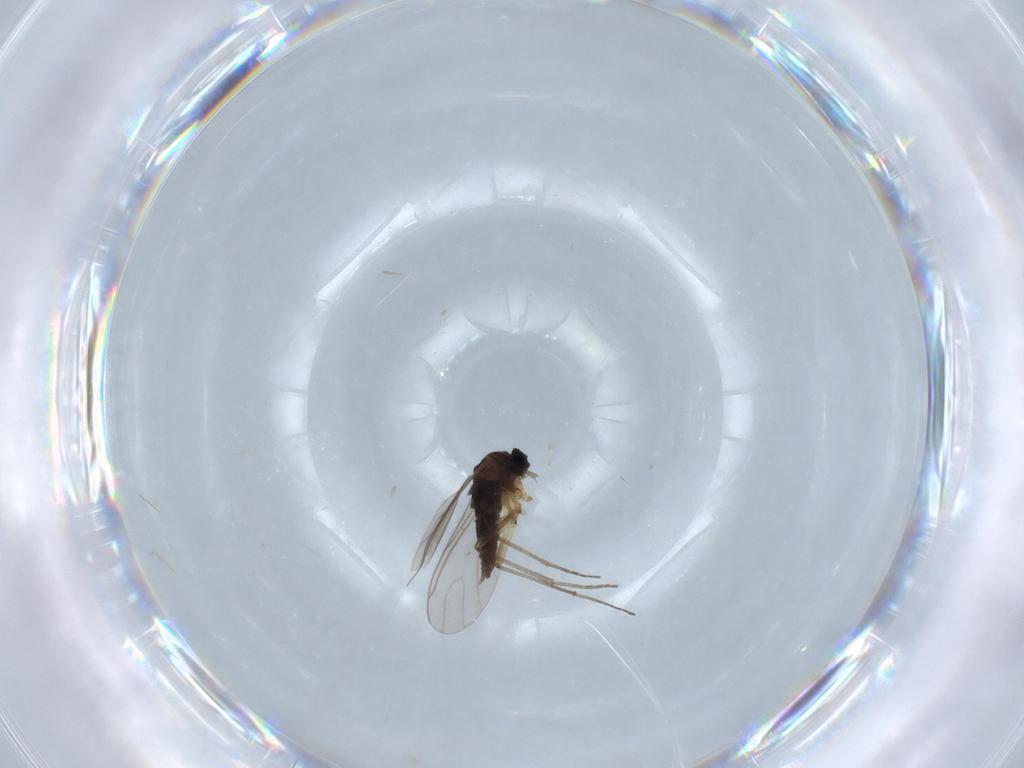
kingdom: Animalia
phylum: Arthropoda
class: Insecta
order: Diptera
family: Sciaridae
